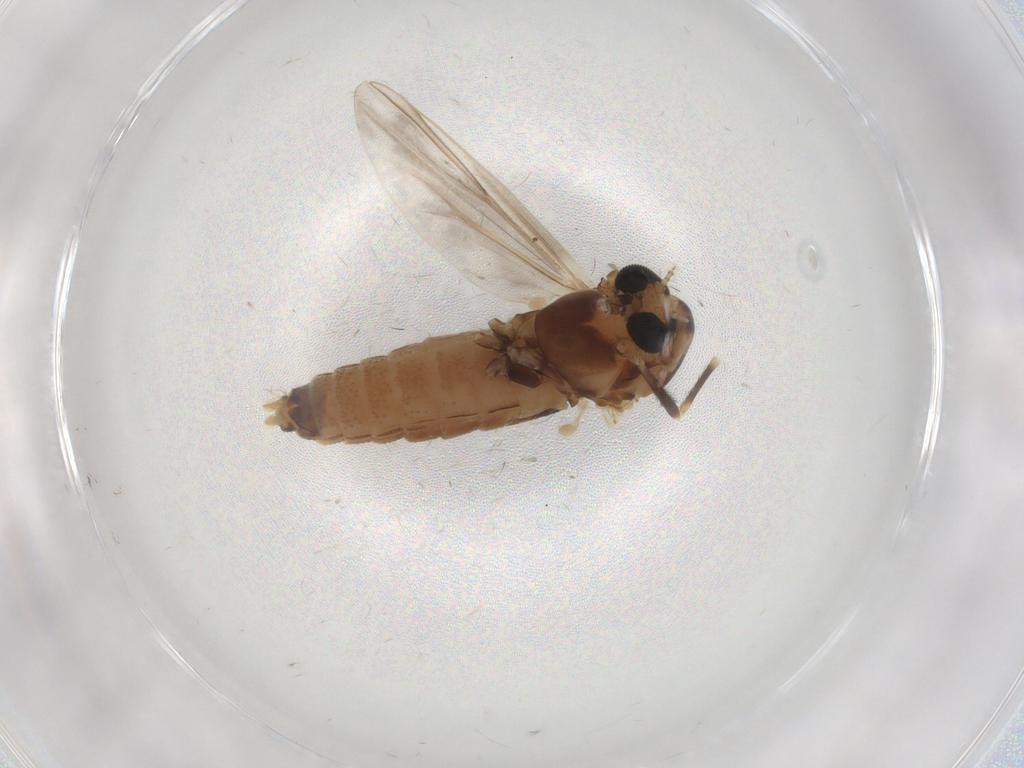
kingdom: Animalia
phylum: Arthropoda
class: Insecta
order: Diptera
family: Chironomidae
